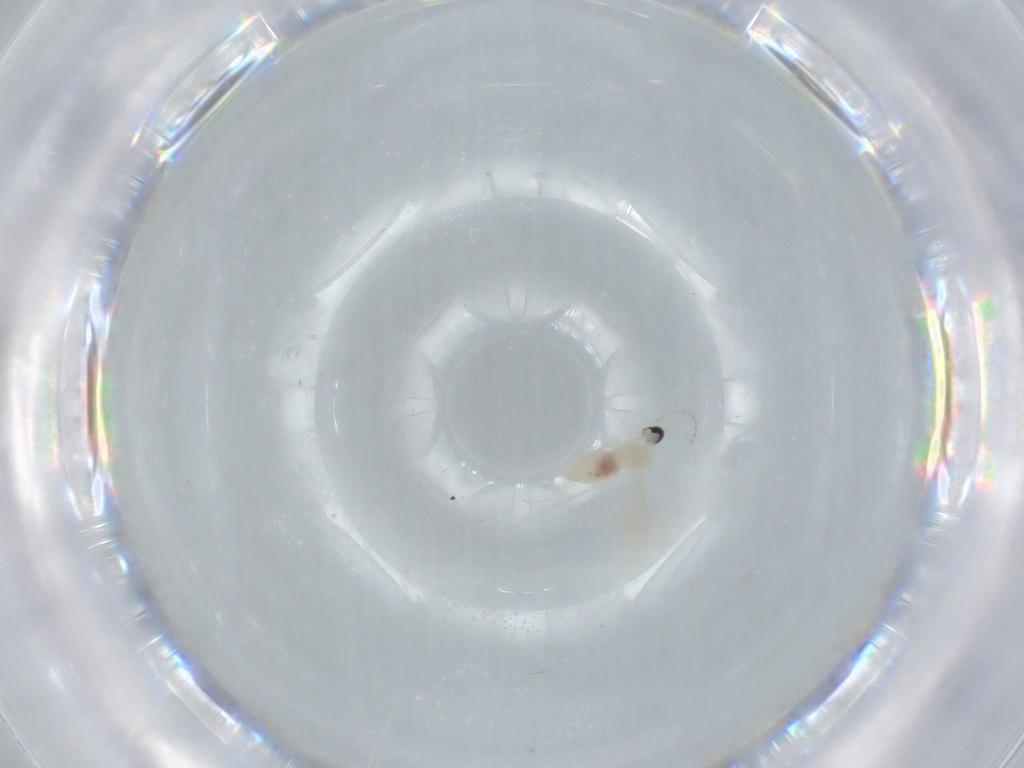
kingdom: Animalia
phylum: Arthropoda
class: Insecta
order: Diptera
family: Cecidomyiidae
